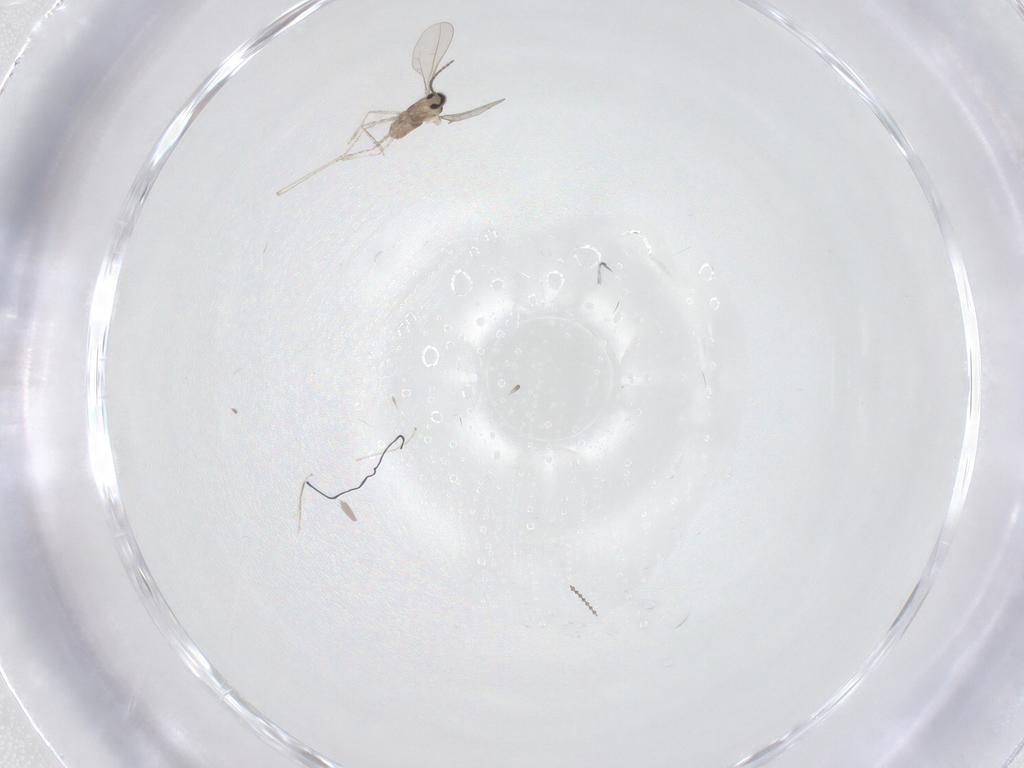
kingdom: Animalia
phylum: Arthropoda
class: Insecta
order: Diptera
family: Cecidomyiidae
